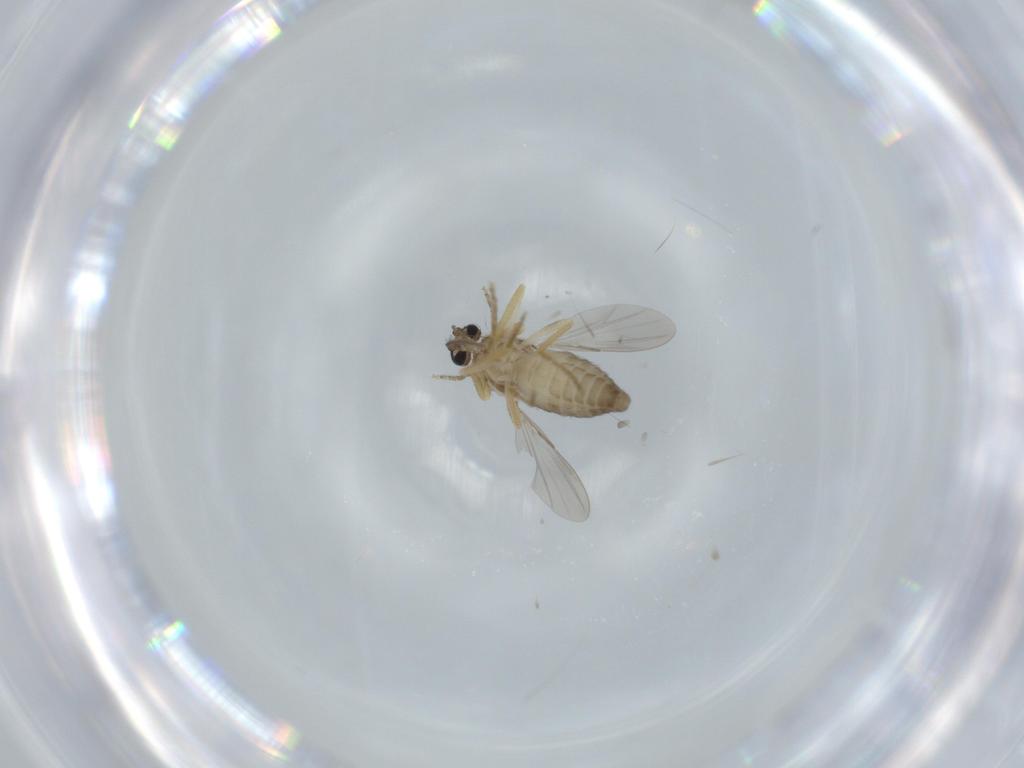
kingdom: Animalia
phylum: Arthropoda
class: Insecta
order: Diptera
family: Ceratopogonidae
